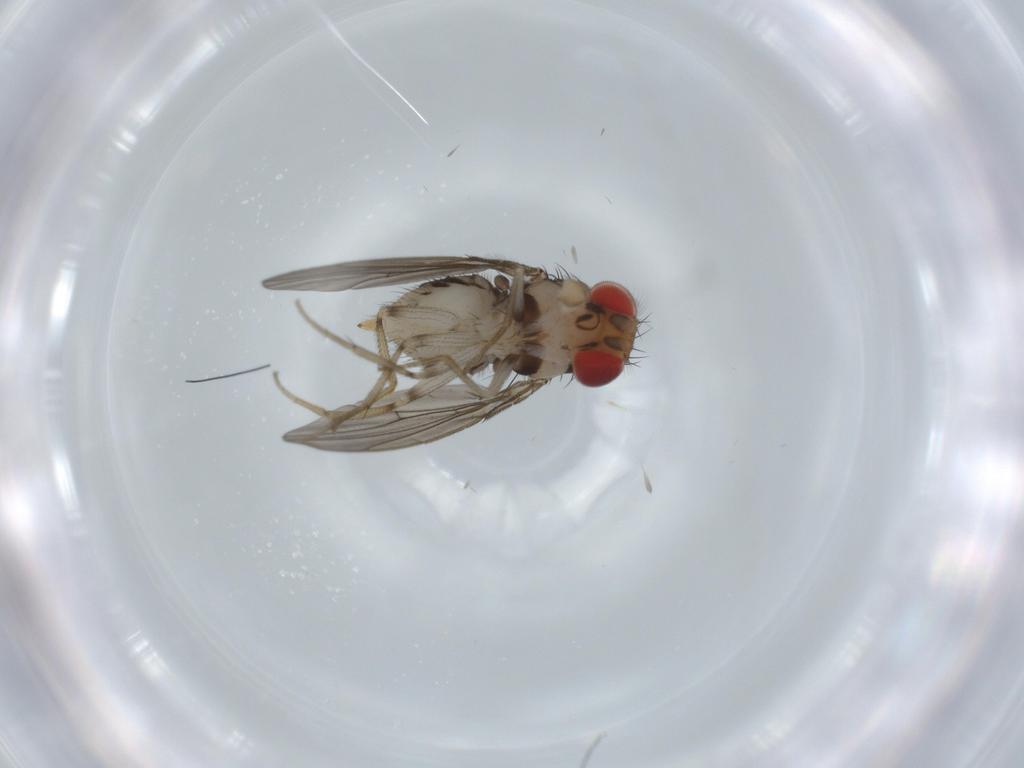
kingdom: Animalia
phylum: Arthropoda
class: Insecta
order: Diptera
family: Drosophilidae
